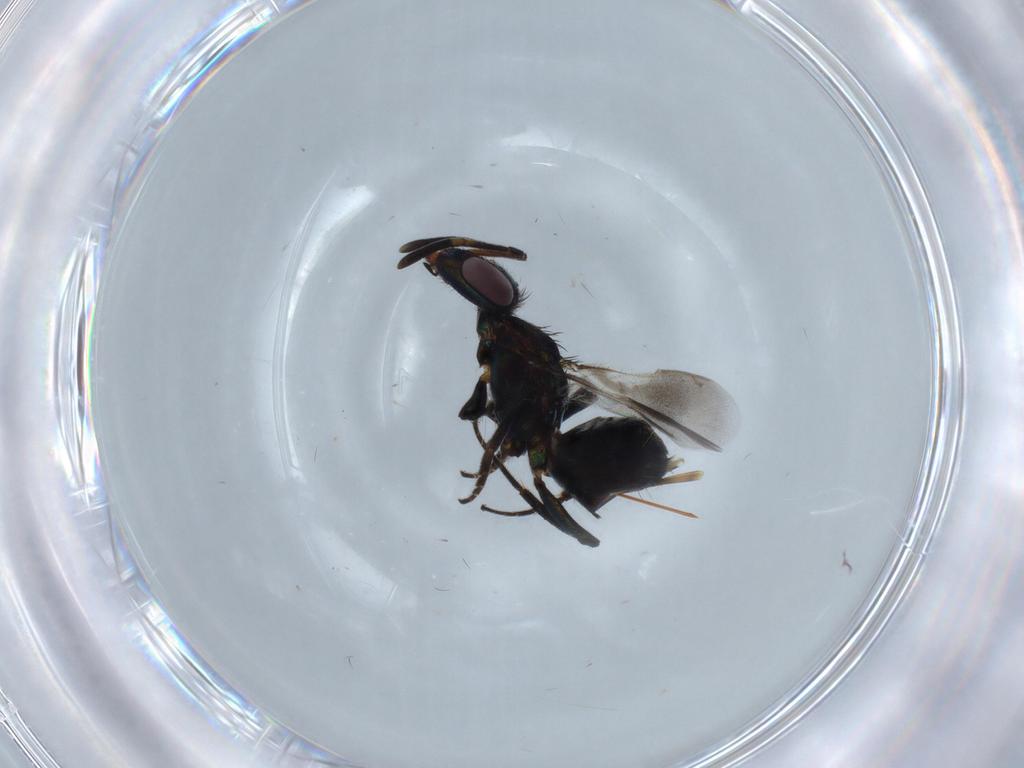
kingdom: Animalia
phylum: Arthropoda
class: Insecta
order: Hymenoptera
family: Eupelmidae
